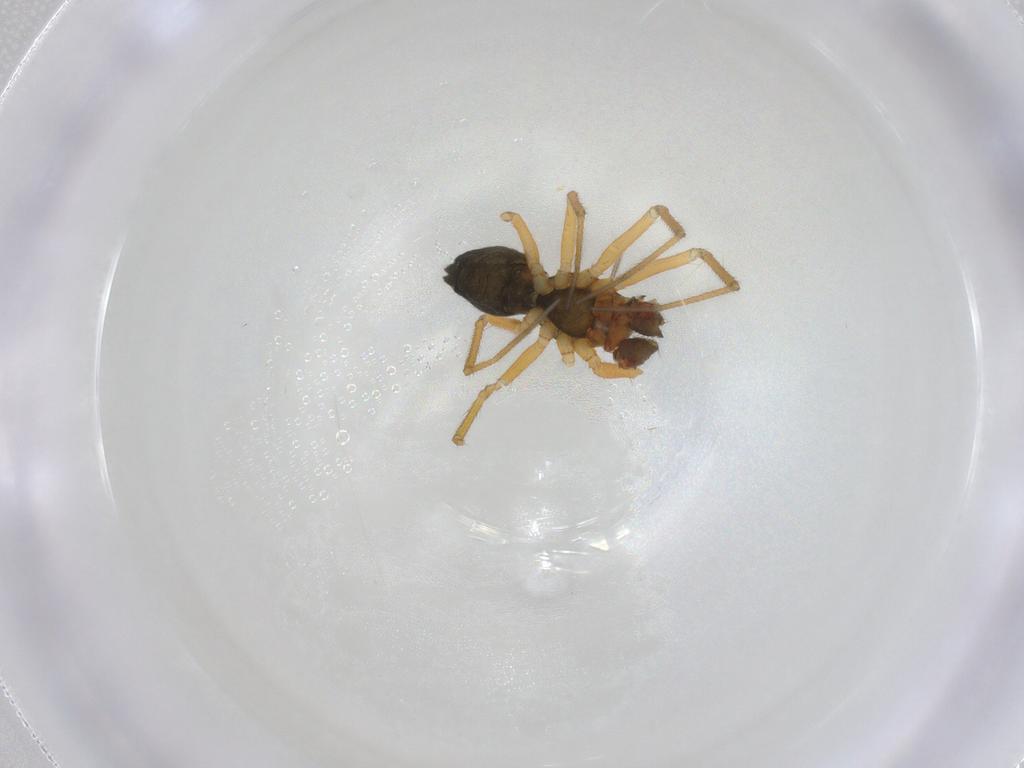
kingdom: Animalia
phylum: Arthropoda
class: Arachnida
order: Araneae
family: Linyphiidae
